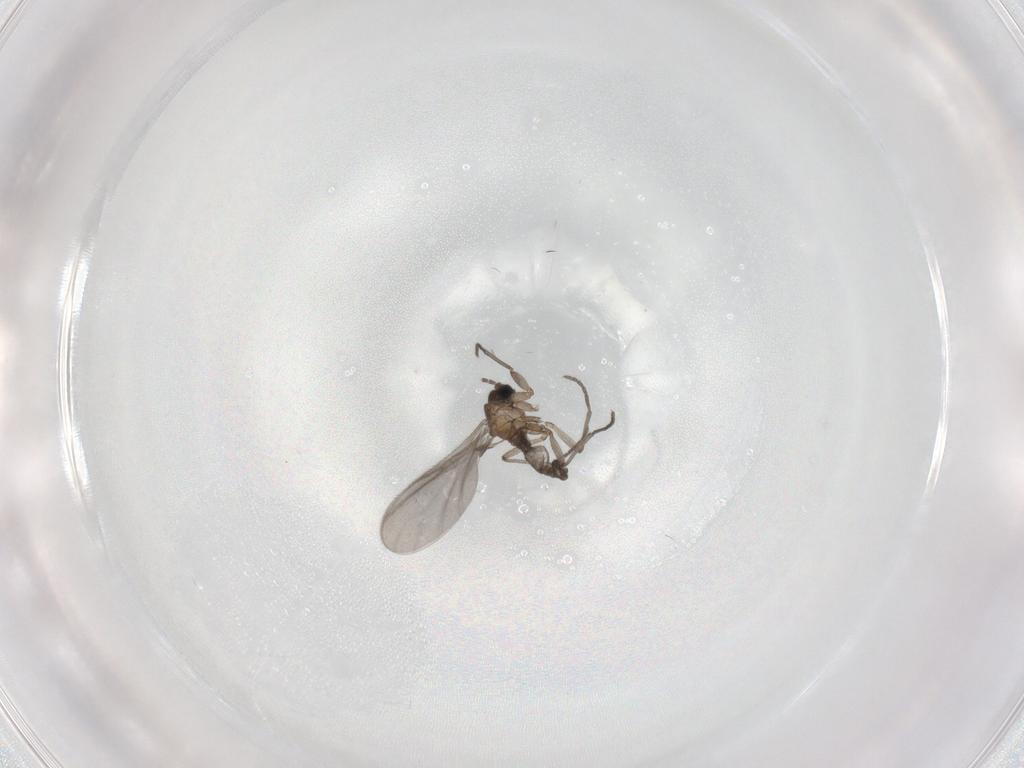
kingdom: Animalia
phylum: Arthropoda
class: Insecta
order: Diptera
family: Sciaridae
